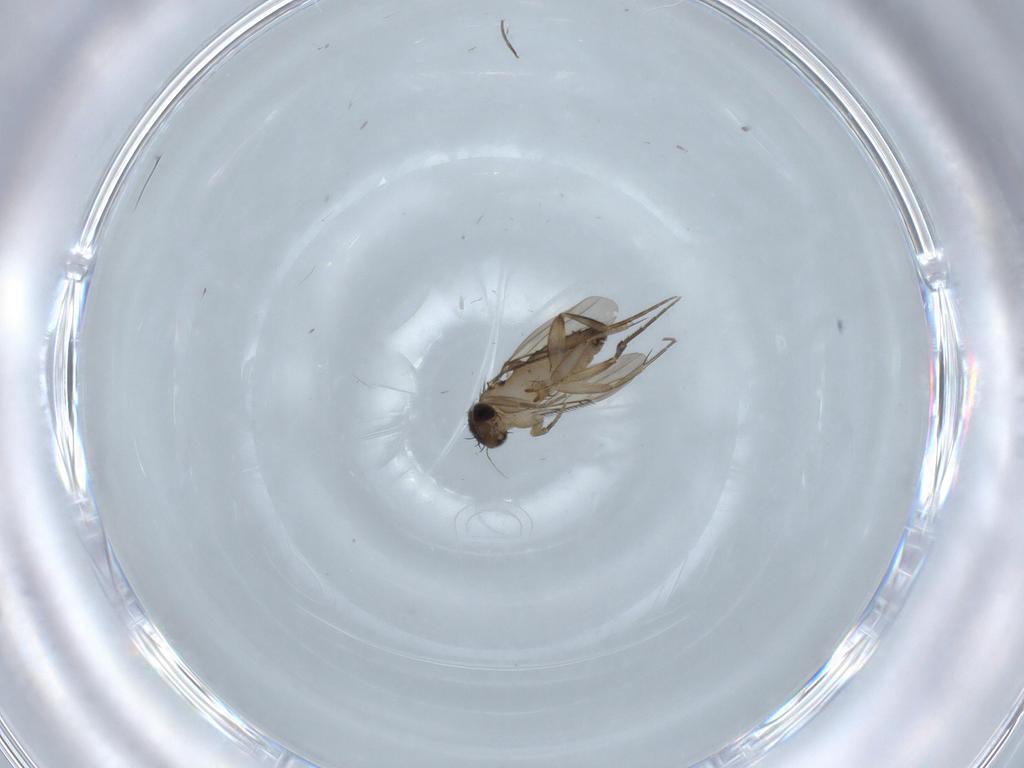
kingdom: Animalia
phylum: Arthropoda
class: Insecta
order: Diptera
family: Phoridae
